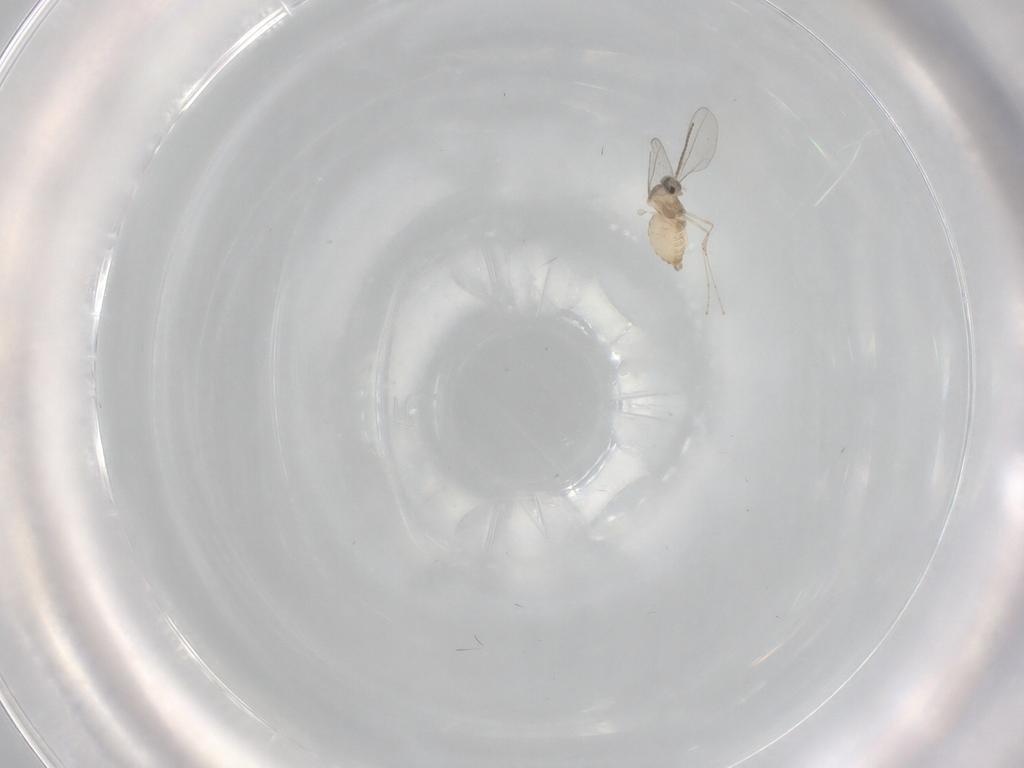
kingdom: Animalia
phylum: Arthropoda
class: Insecta
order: Diptera
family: Cecidomyiidae
